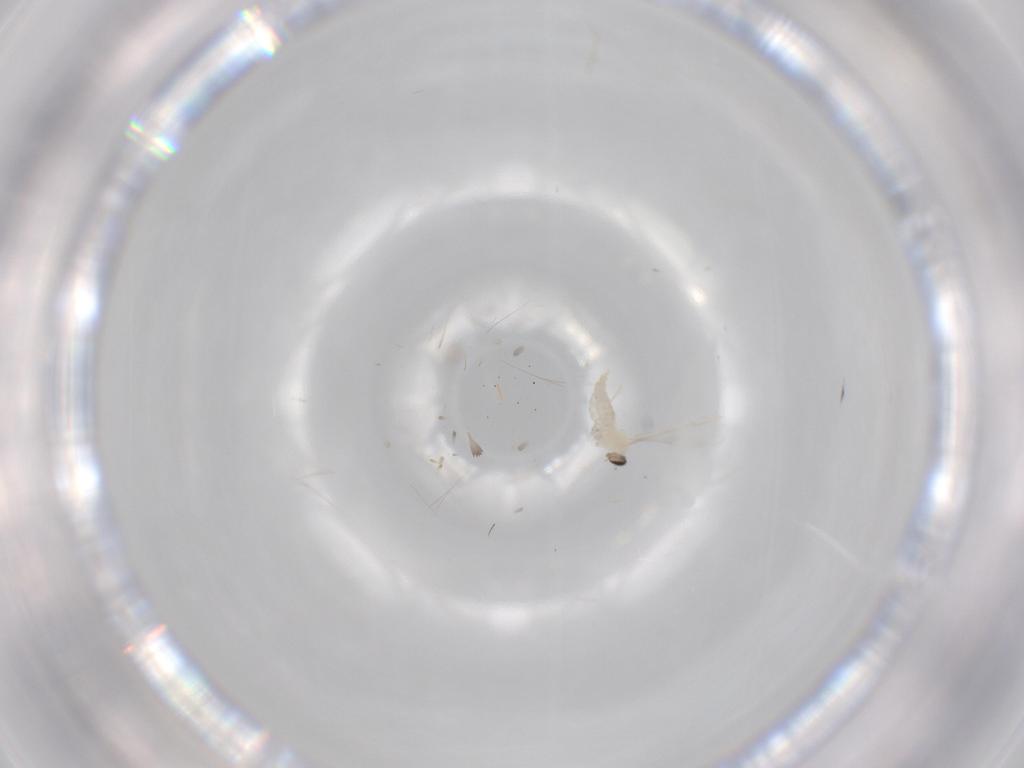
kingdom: Animalia
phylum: Arthropoda
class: Insecta
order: Diptera
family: Cecidomyiidae
